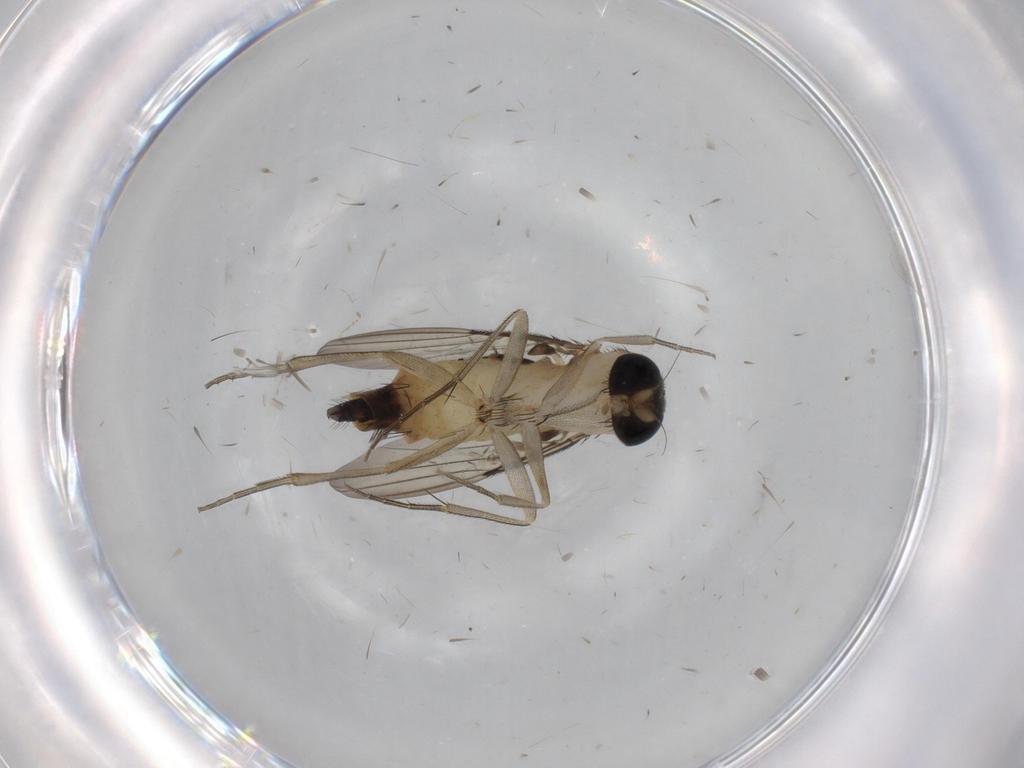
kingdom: Animalia
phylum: Arthropoda
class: Insecta
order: Diptera
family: Phoridae
